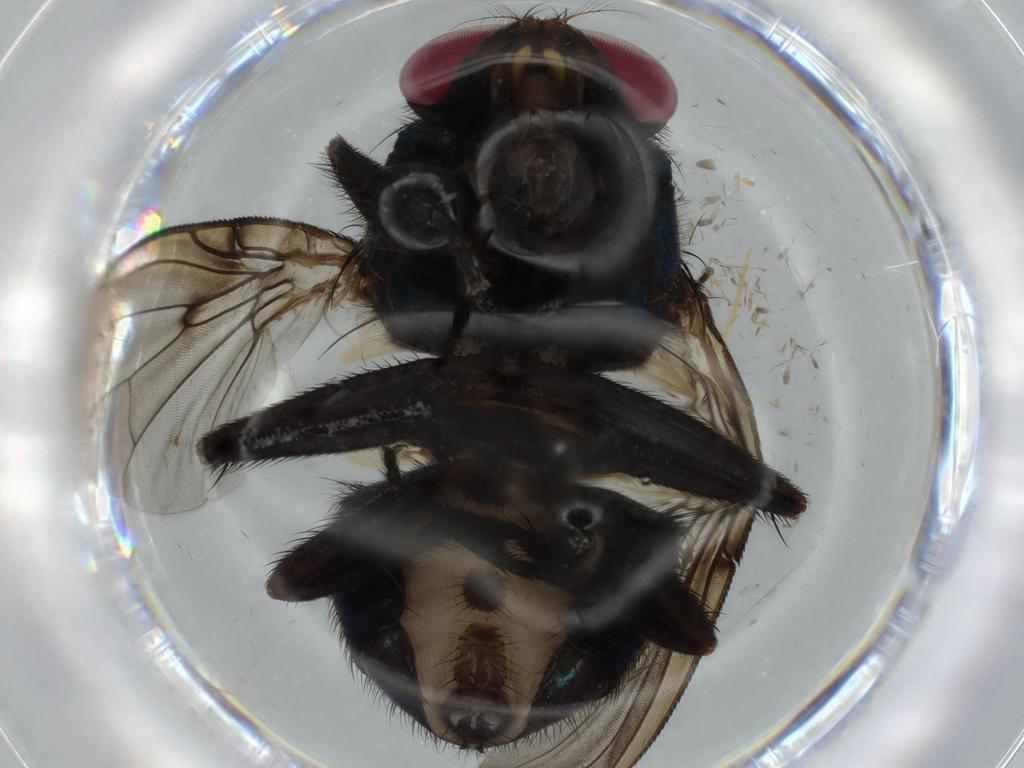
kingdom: Animalia
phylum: Arthropoda
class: Insecta
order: Diptera
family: Muscidae
